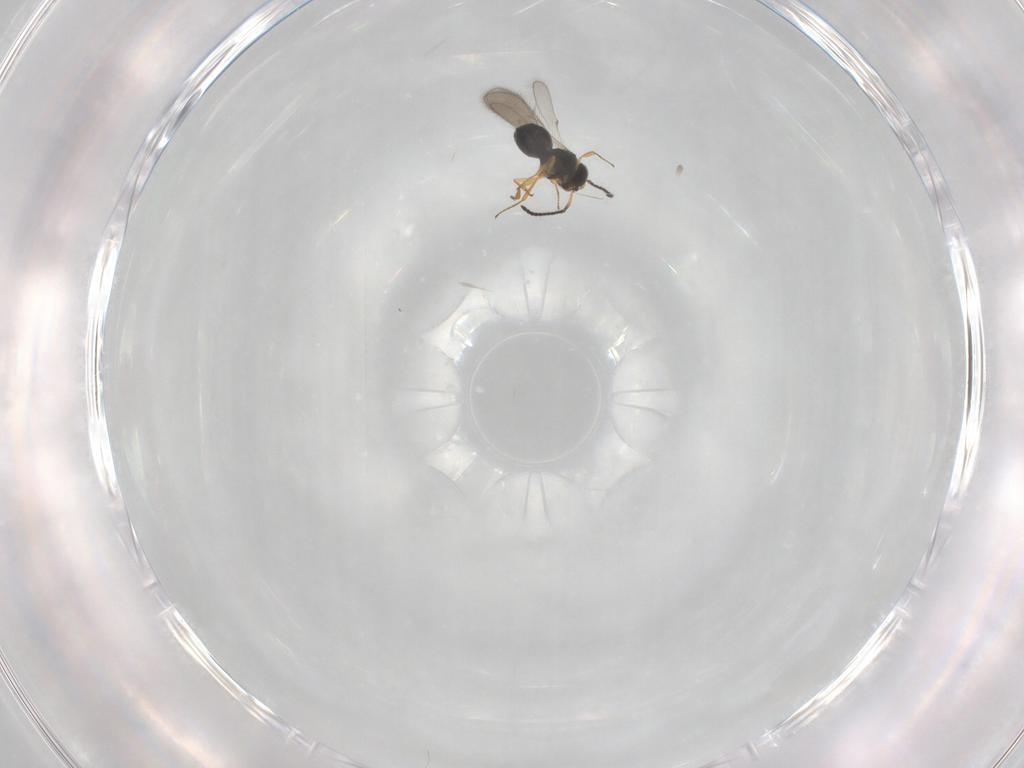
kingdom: Animalia
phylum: Arthropoda
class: Insecta
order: Hymenoptera
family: Scelionidae
